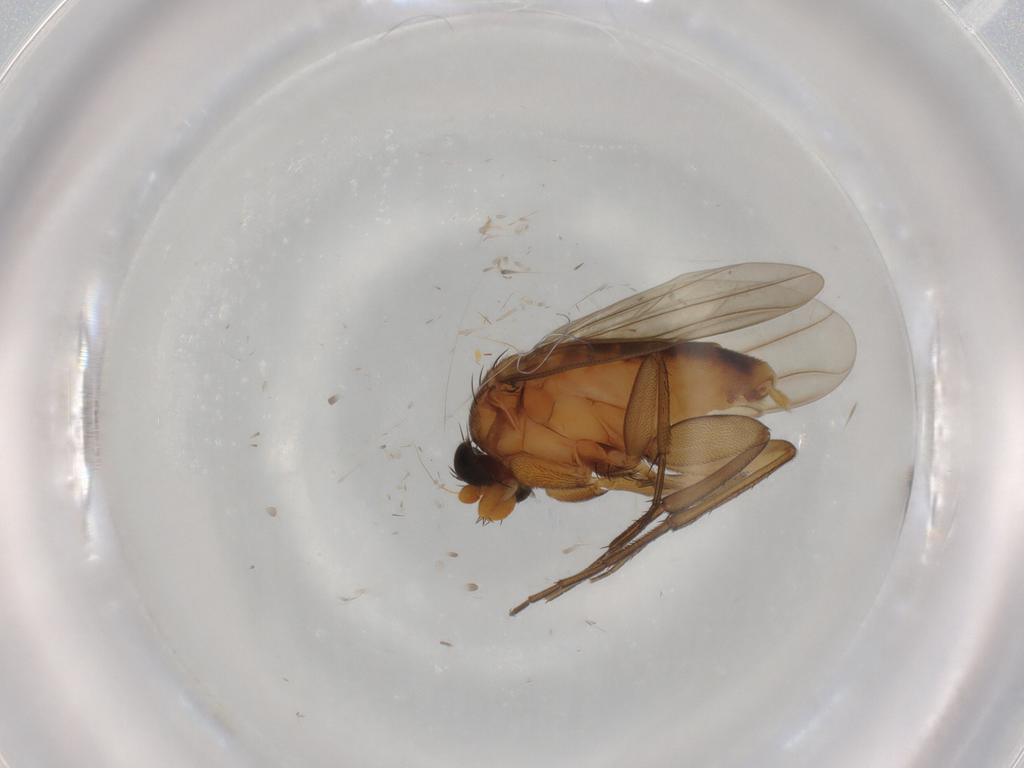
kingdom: Animalia
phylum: Arthropoda
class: Insecta
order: Diptera
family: Phoridae
